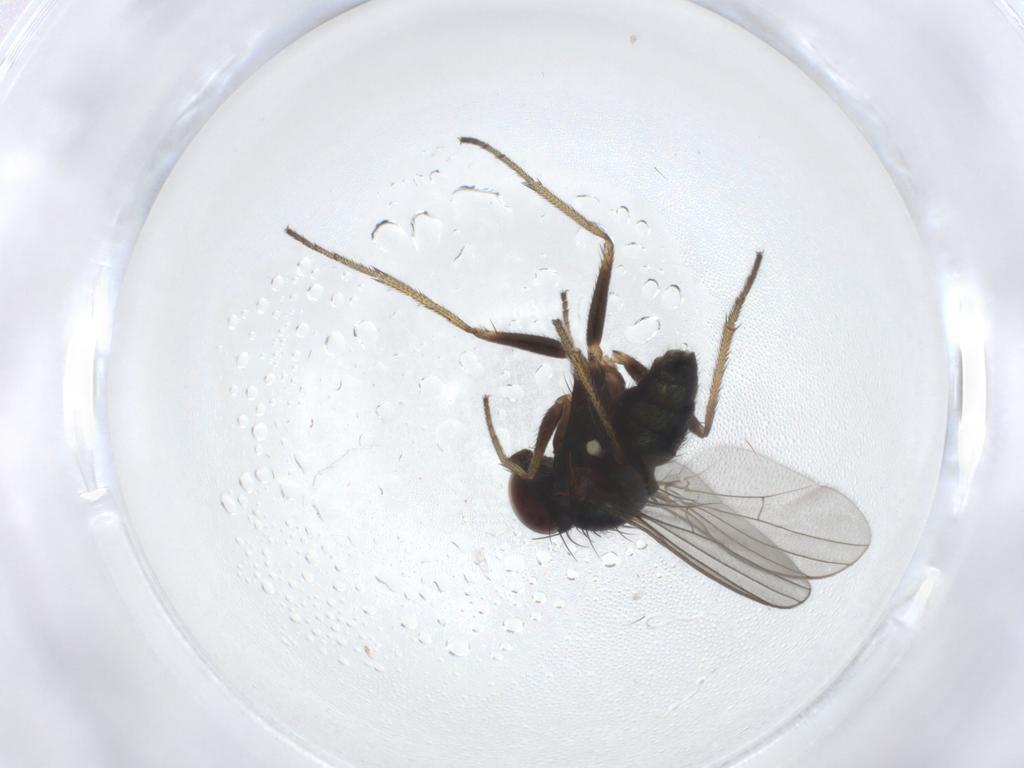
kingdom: Animalia
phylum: Arthropoda
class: Insecta
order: Diptera
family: Dolichopodidae
